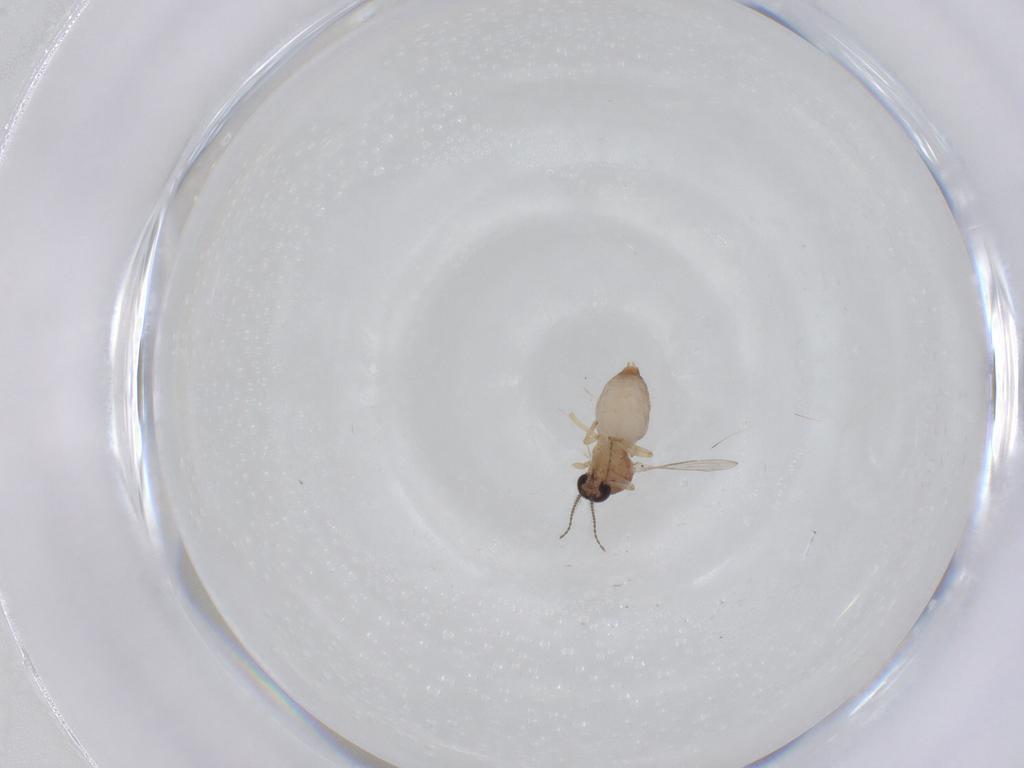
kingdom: Animalia
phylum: Arthropoda
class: Insecta
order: Diptera
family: Ceratopogonidae
